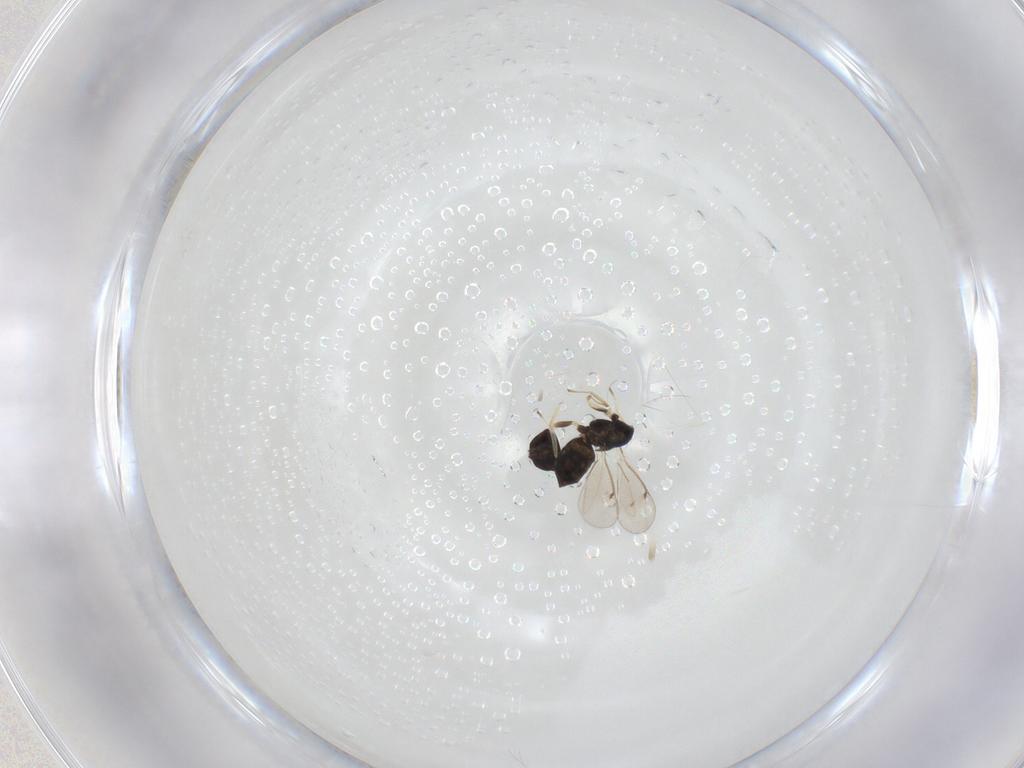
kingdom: Animalia
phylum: Arthropoda
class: Insecta
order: Hymenoptera
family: Eulophidae
